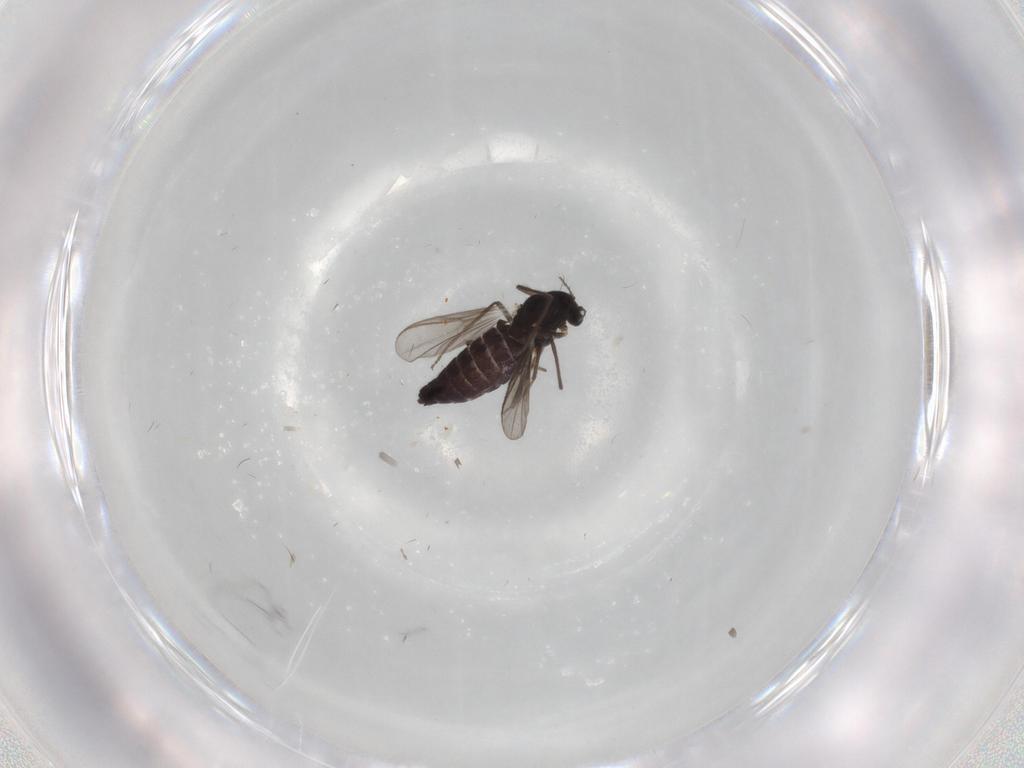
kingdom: Animalia
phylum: Arthropoda
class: Insecta
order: Diptera
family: Chironomidae
